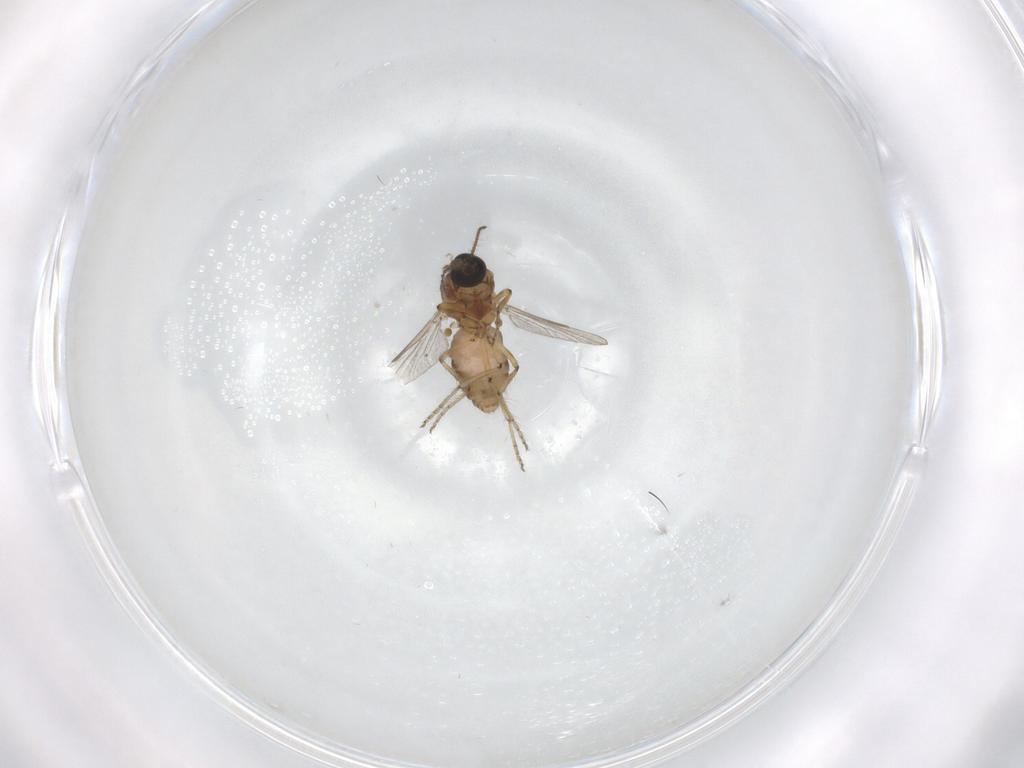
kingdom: Animalia
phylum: Arthropoda
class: Insecta
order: Diptera
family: Ceratopogonidae
